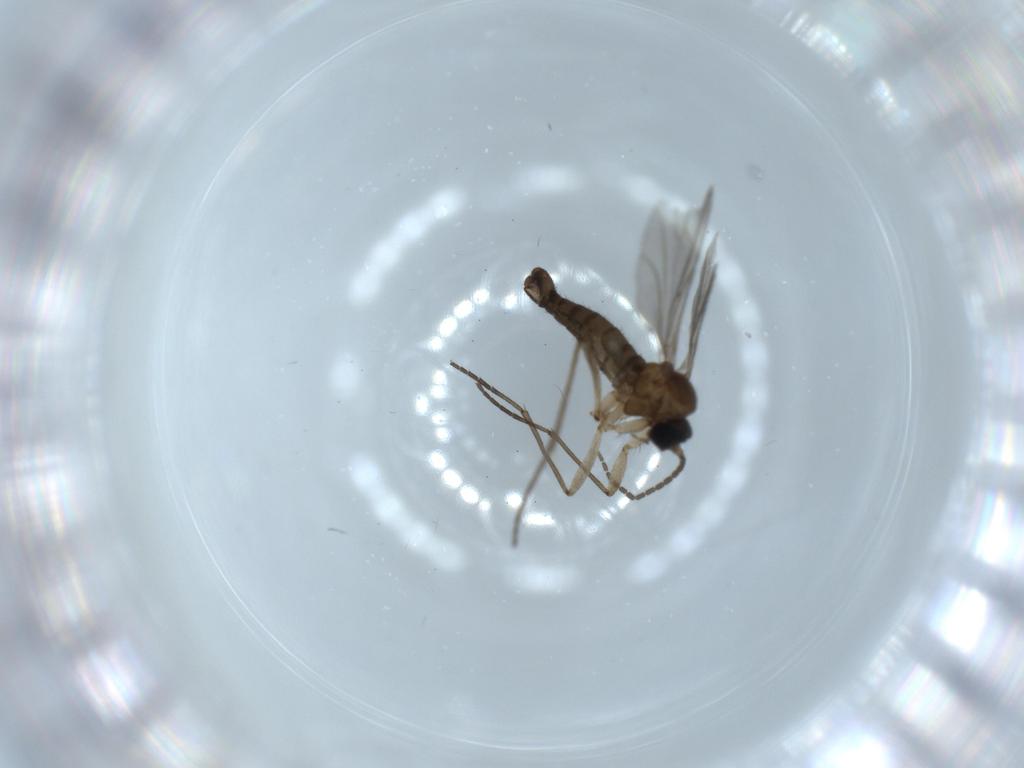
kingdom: Animalia
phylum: Arthropoda
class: Insecta
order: Diptera
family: Sciaridae
